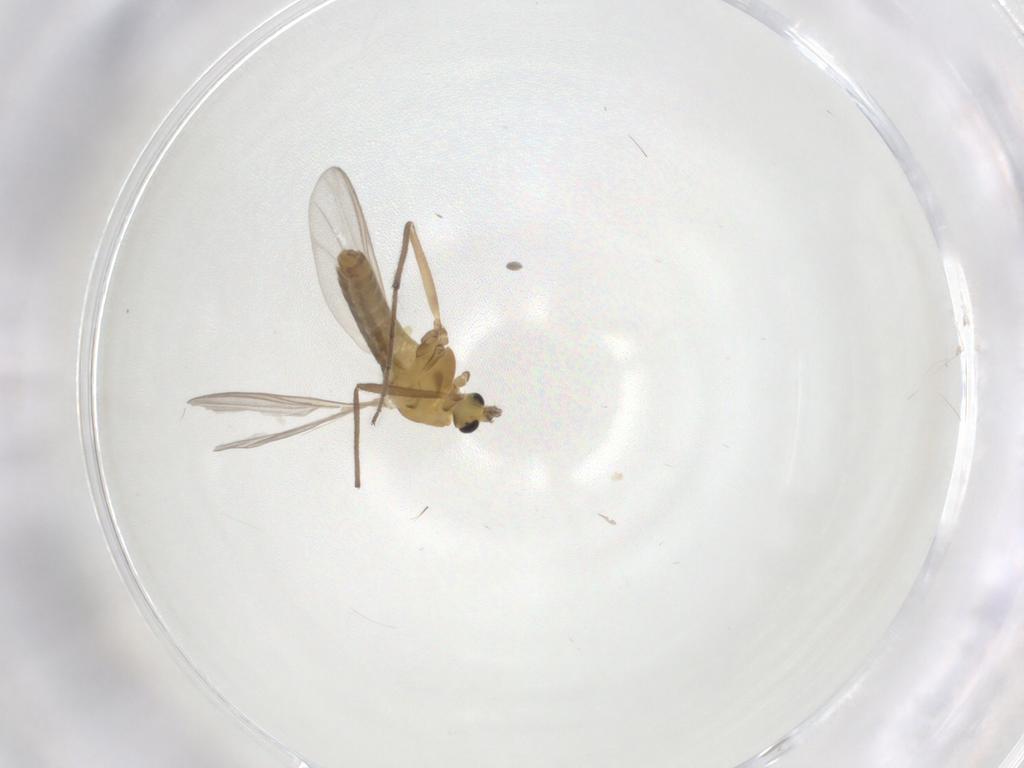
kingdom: Animalia
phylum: Arthropoda
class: Insecta
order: Diptera
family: Chironomidae
